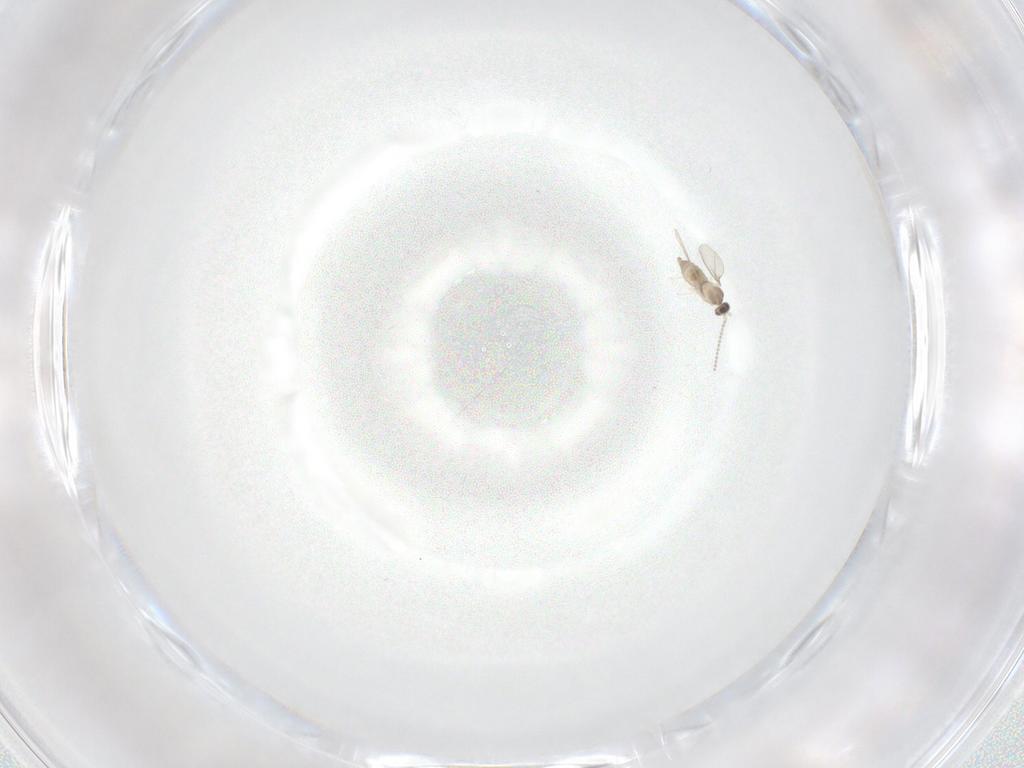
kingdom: Animalia
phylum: Arthropoda
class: Insecta
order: Diptera
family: Cecidomyiidae
